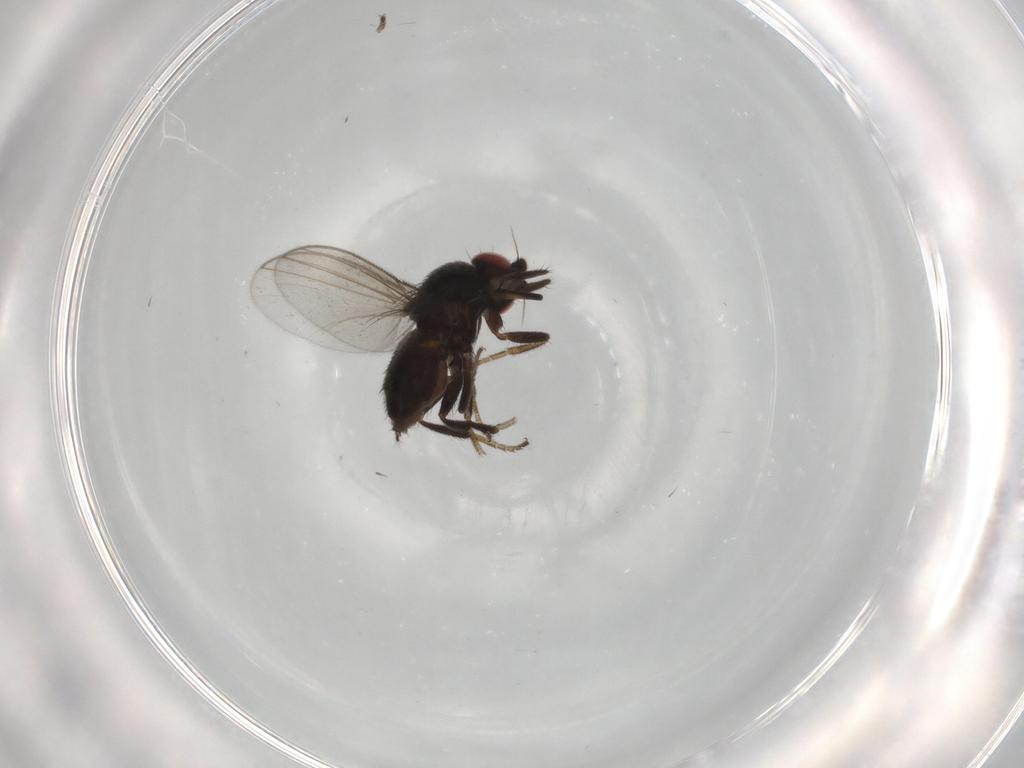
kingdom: Animalia
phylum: Arthropoda
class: Insecta
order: Diptera
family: Milichiidae
